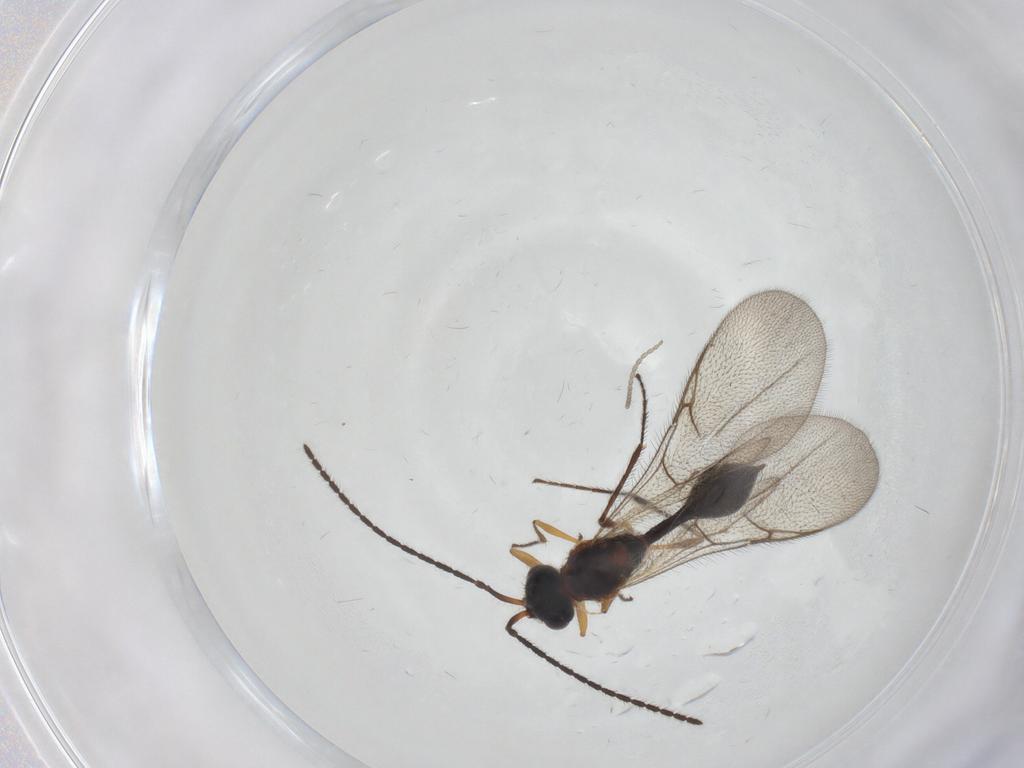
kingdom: Animalia
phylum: Arthropoda
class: Insecta
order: Hymenoptera
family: Diapriidae
